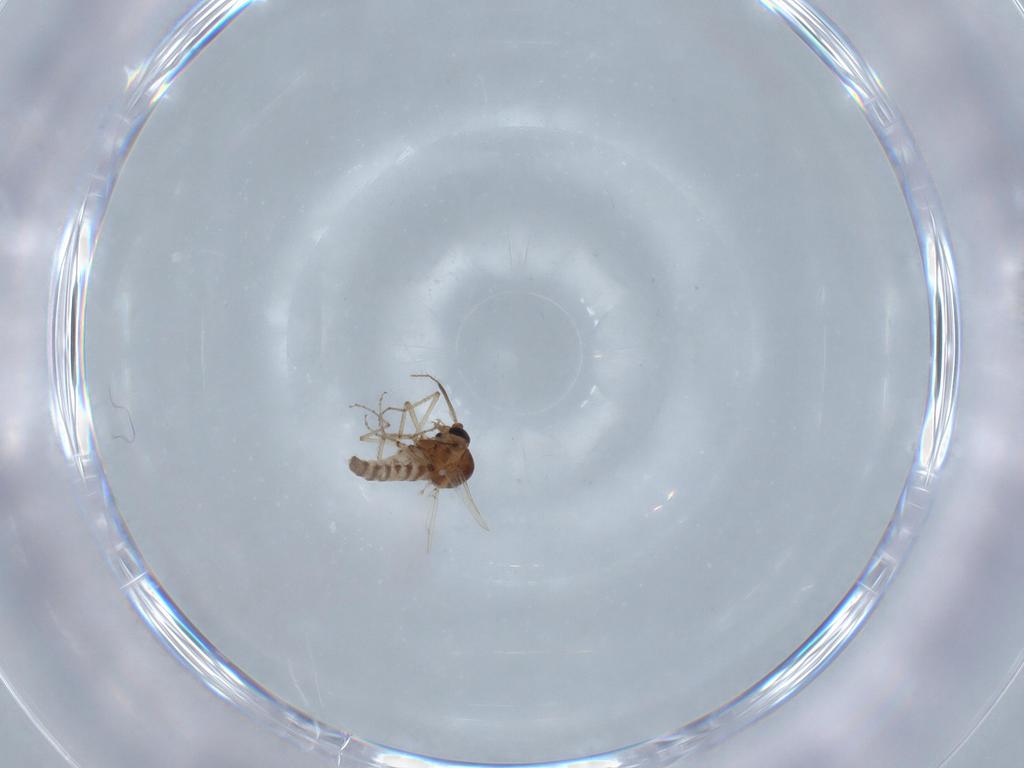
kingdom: Animalia
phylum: Arthropoda
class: Insecta
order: Diptera
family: Ceratopogonidae
